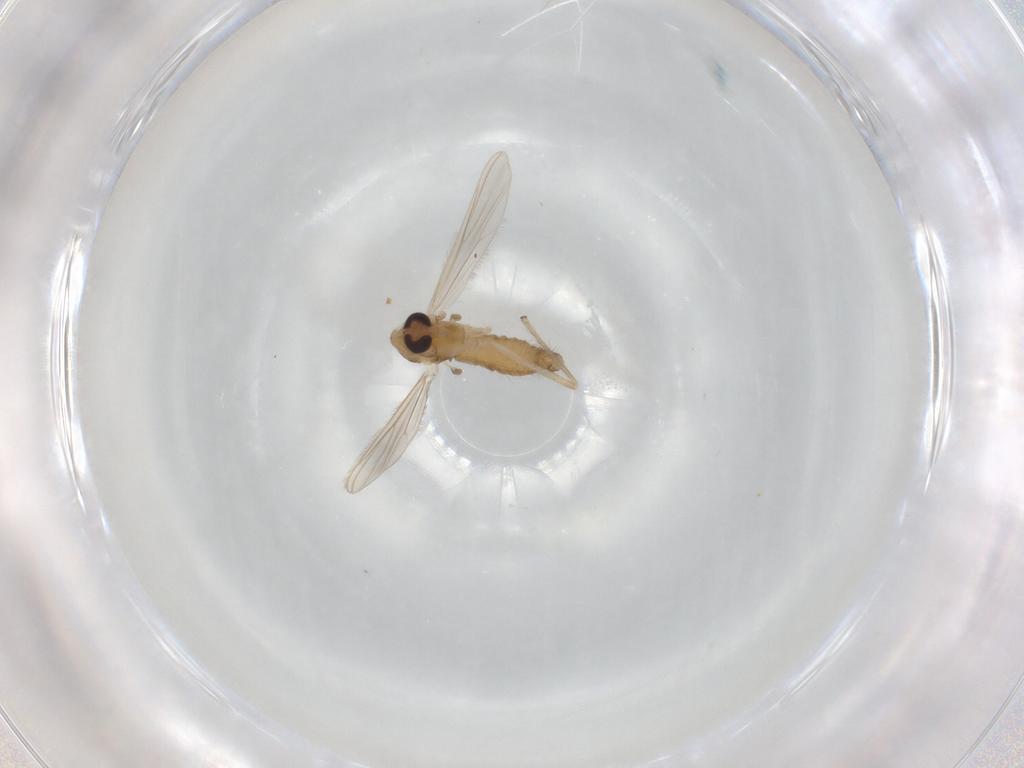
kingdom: Animalia
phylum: Arthropoda
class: Insecta
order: Diptera
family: Chironomidae
